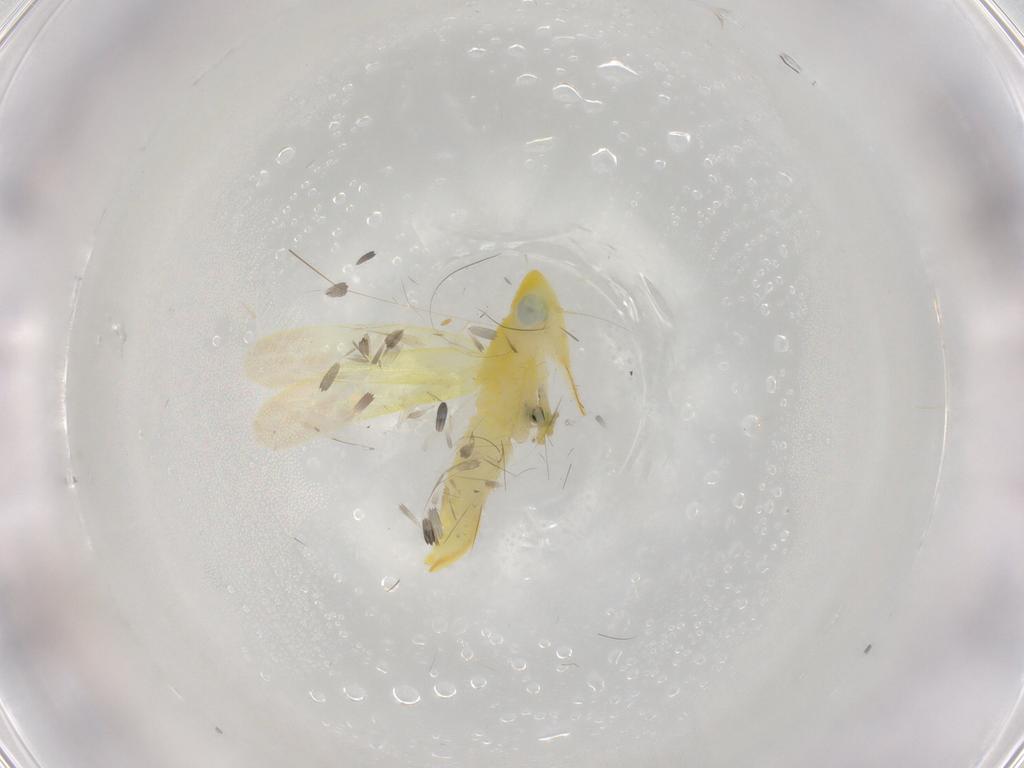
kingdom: Animalia
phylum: Arthropoda
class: Insecta
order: Hemiptera
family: Cicadellidae
